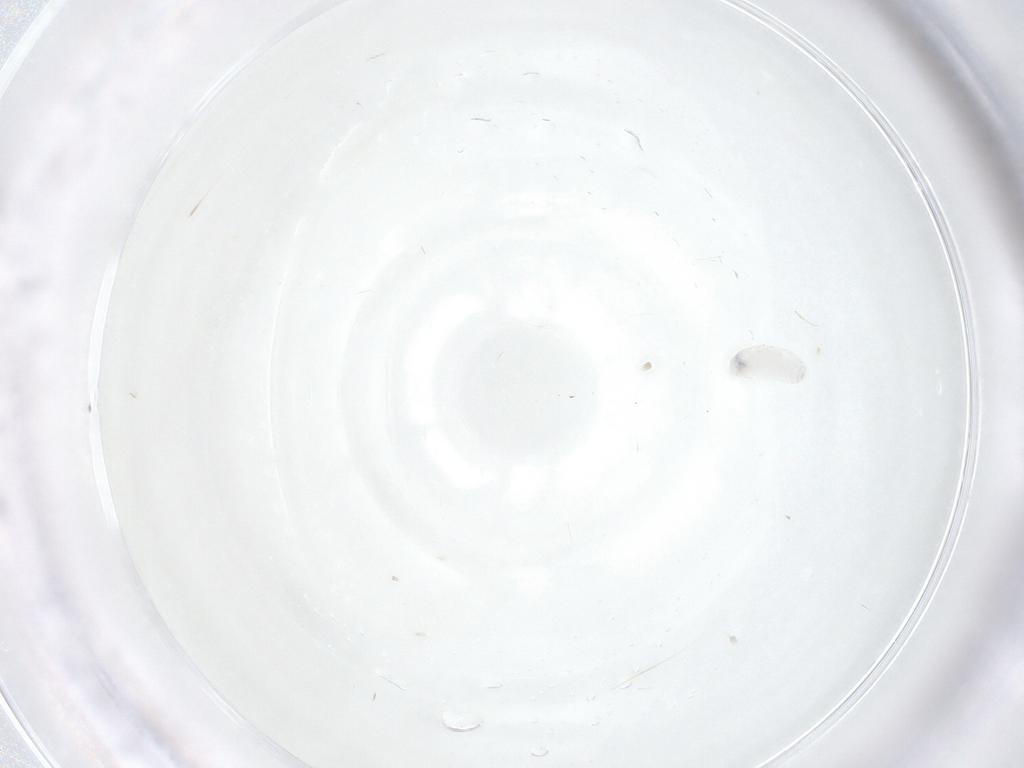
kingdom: Animalia
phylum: Arthropoda
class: Insecta
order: Diptera
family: Tachinidae
